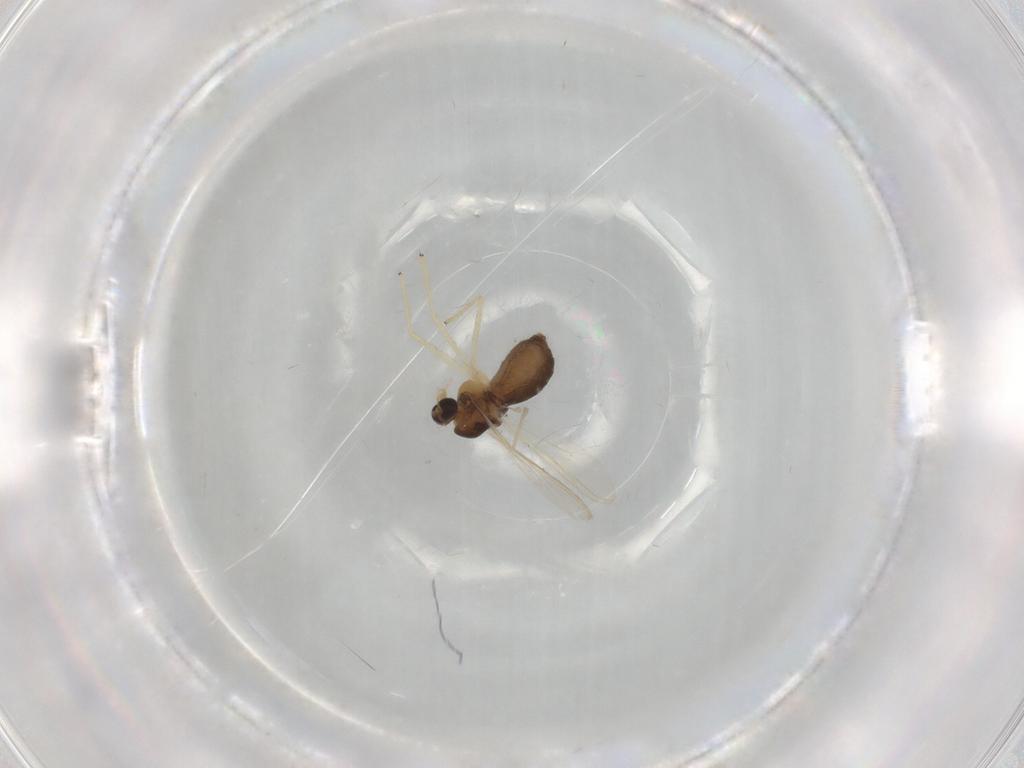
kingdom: Animalia
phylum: Arthropoda
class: Insecta
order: Diptera
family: Chironomidae
